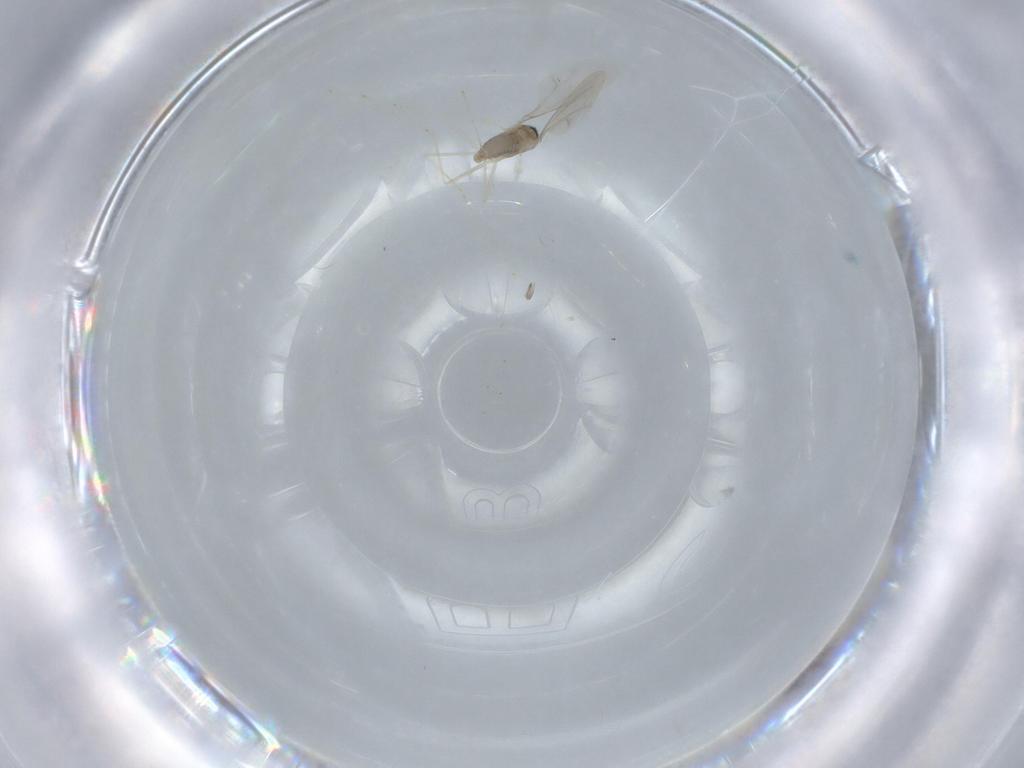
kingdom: Animalia
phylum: Arthropoda
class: Insecta
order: Diptera
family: Cecidomyiidae
